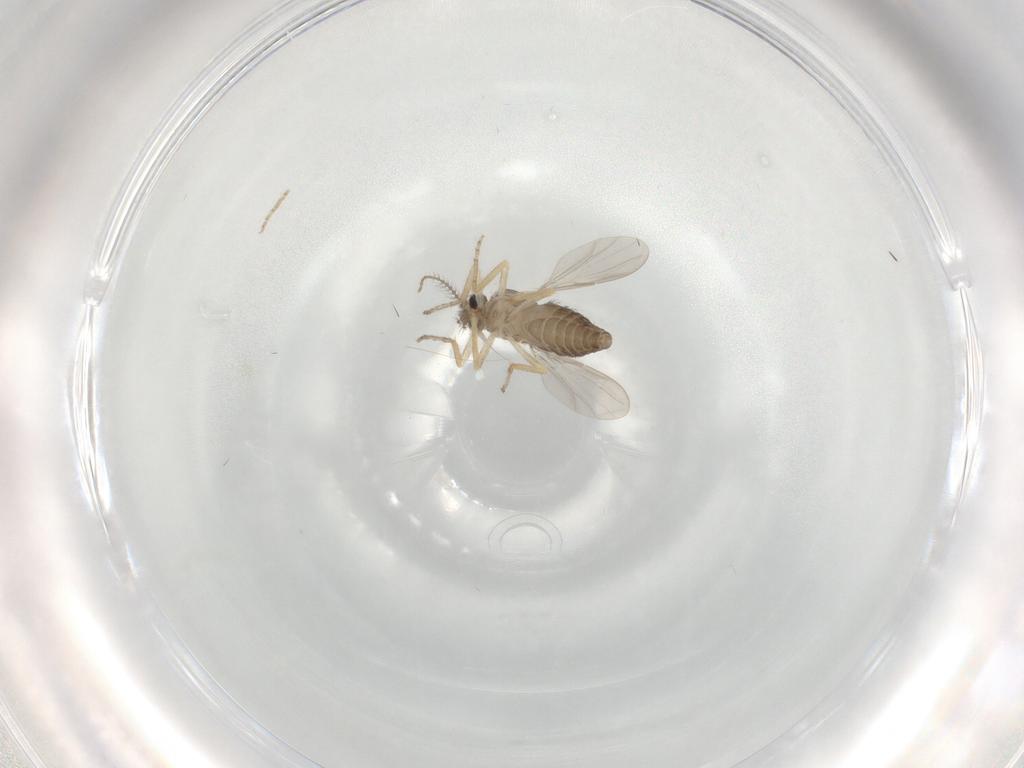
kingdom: Animalia
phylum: Arthropoda
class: Insecta
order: Diptera
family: Ceratopogonidae
